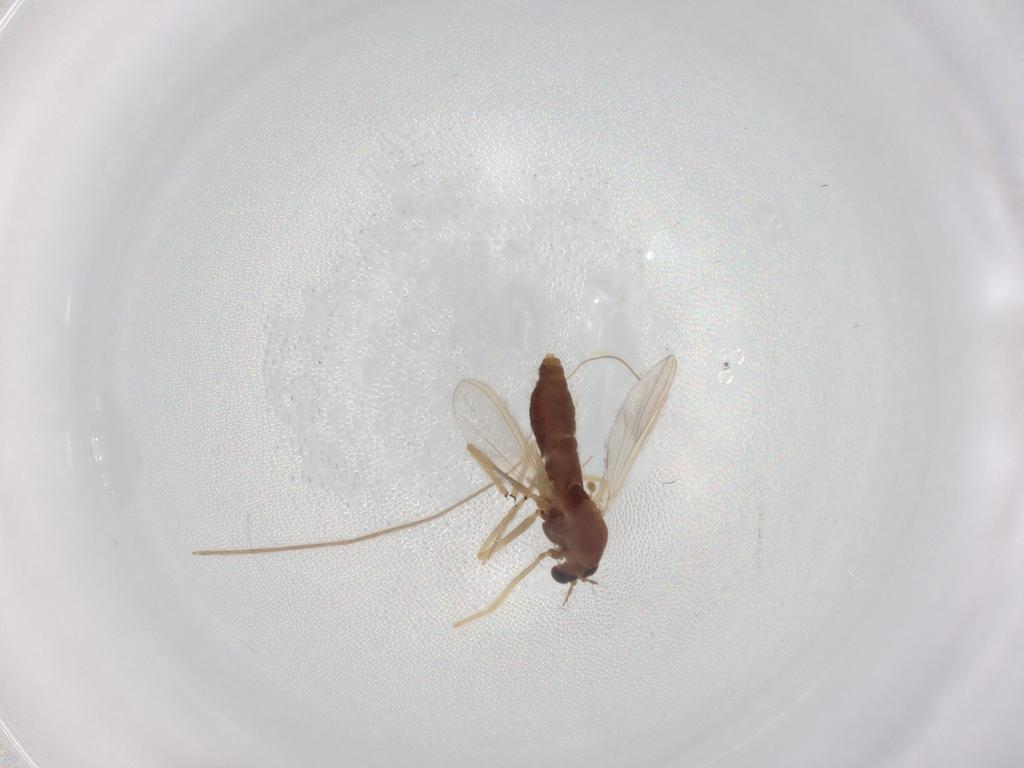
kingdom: Animalia
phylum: Arthropoda
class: Insecta
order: Diptera
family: Chironomidae
